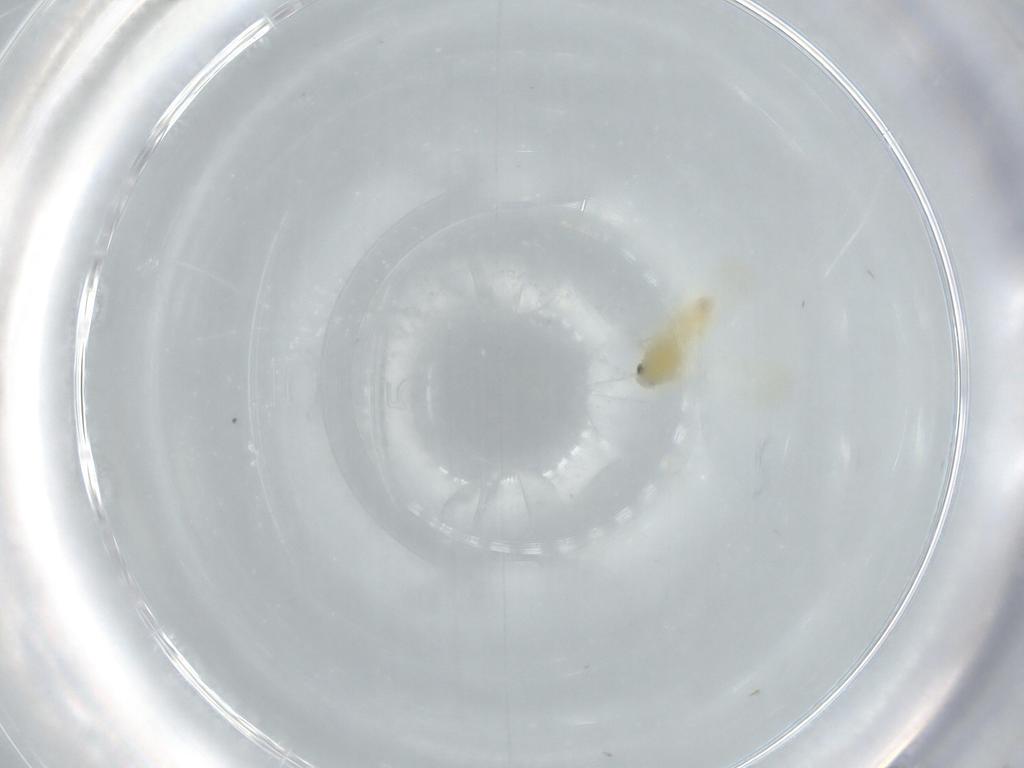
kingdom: Animalia
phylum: Arthropoda
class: Insecta
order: Hemiptera
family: Aleyrodidae
